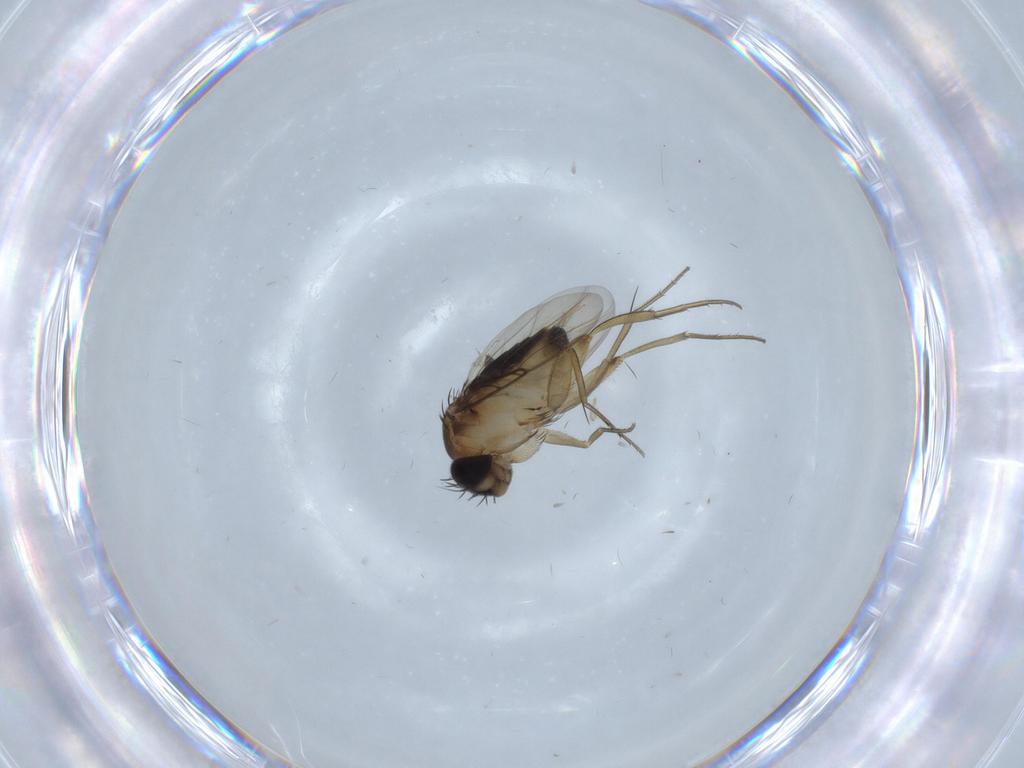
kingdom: Animalia
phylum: Arthropoda
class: Insecta
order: Diptera
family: Phoridae
